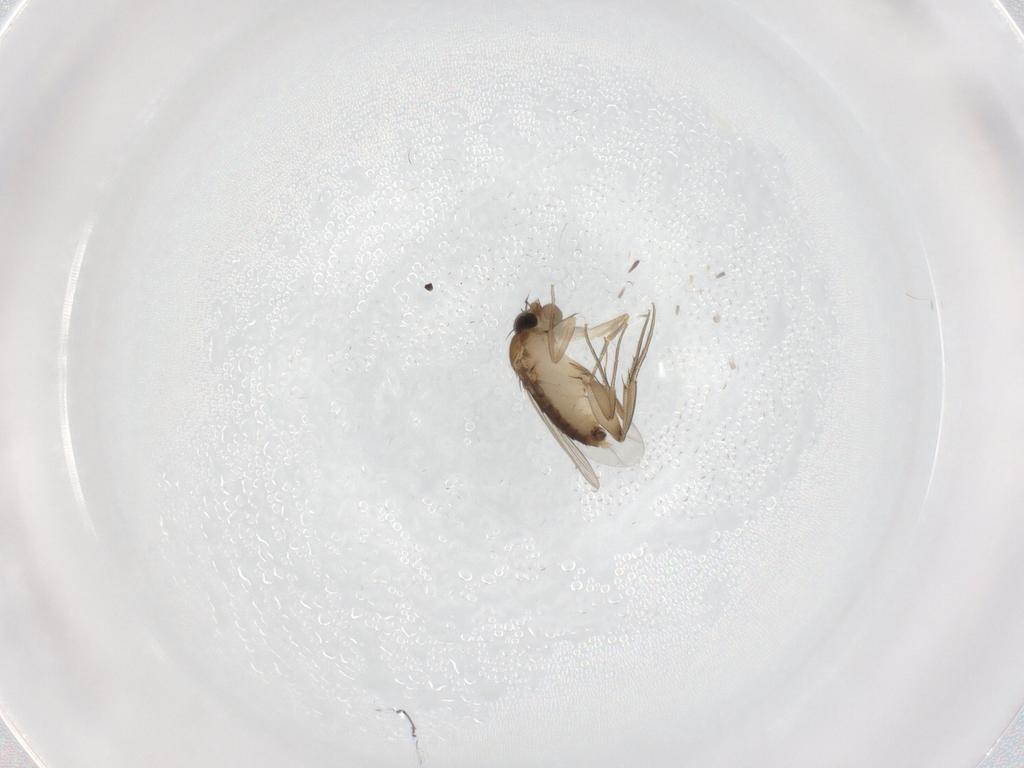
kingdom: Animalia
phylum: Arthropoda
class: Insecta
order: Diptera
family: Phoridae
